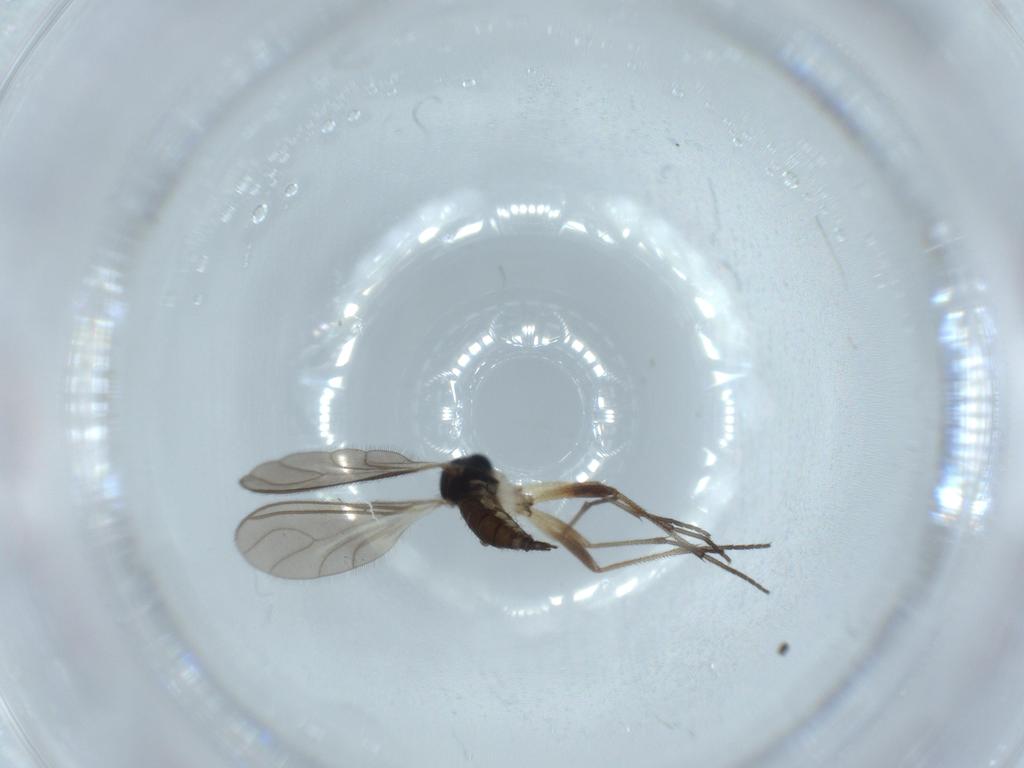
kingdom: Animalia
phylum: Arthropoda
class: Insecta
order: Diptera
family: Sciaridae
